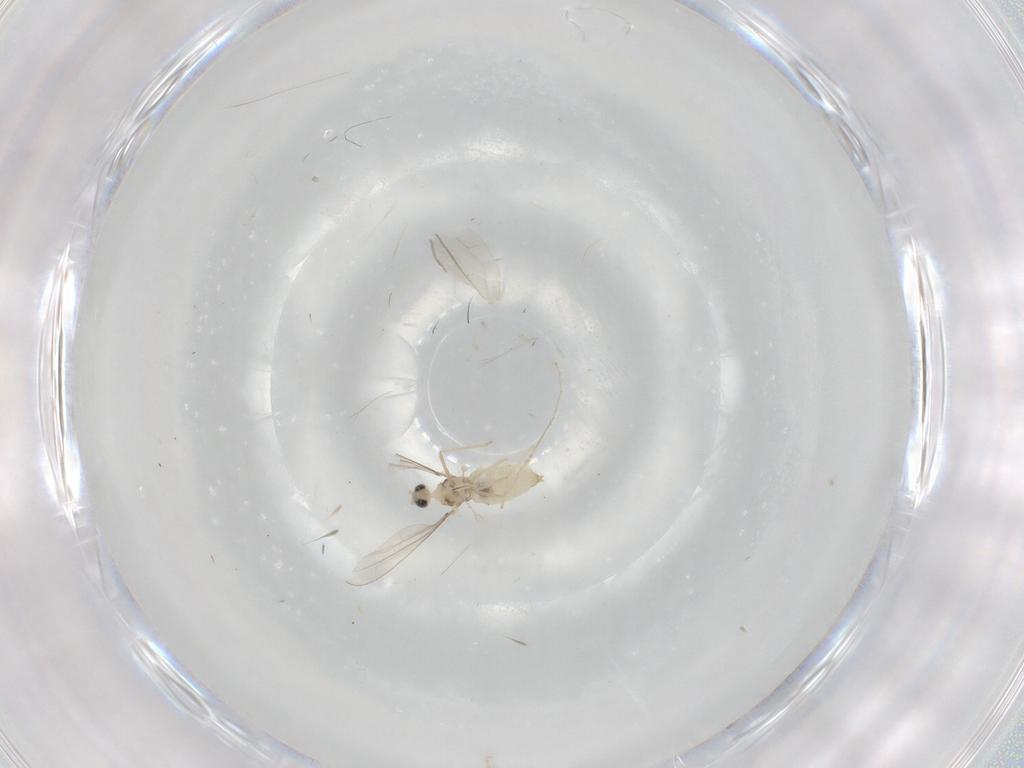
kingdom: Animalia
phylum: Arthropoda
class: Insecta
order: Diptera
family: Cecidomyiidae
